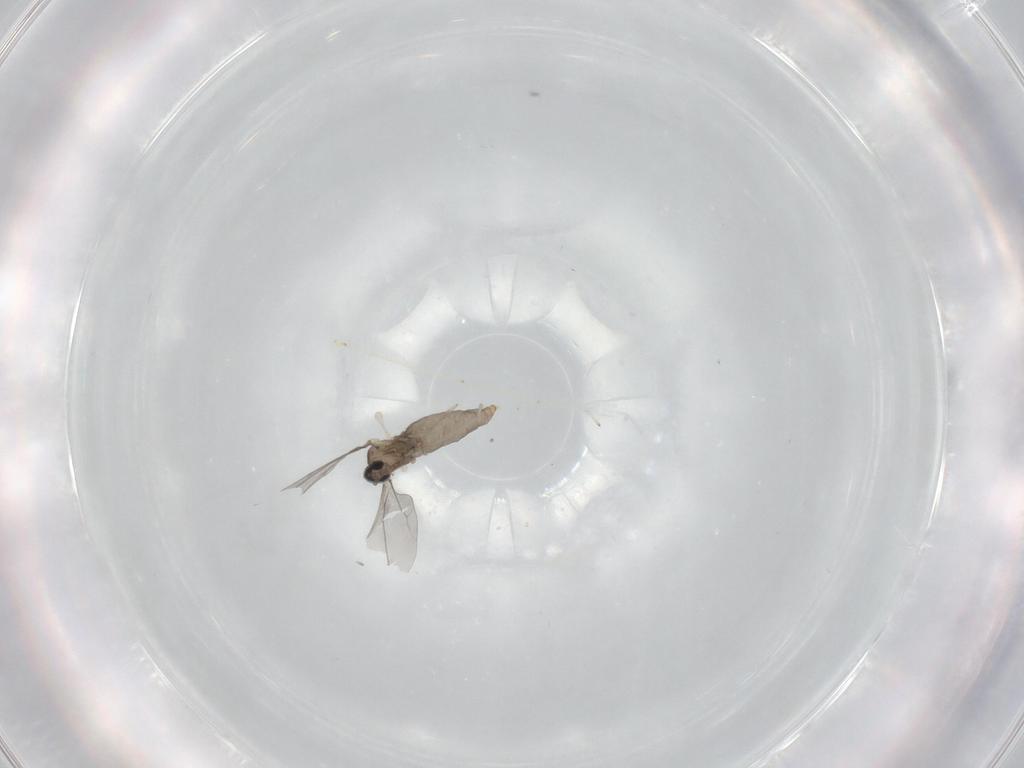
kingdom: Animalia
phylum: Arthropoda
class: Insecta
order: Diptera
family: Cecidomyiidae
